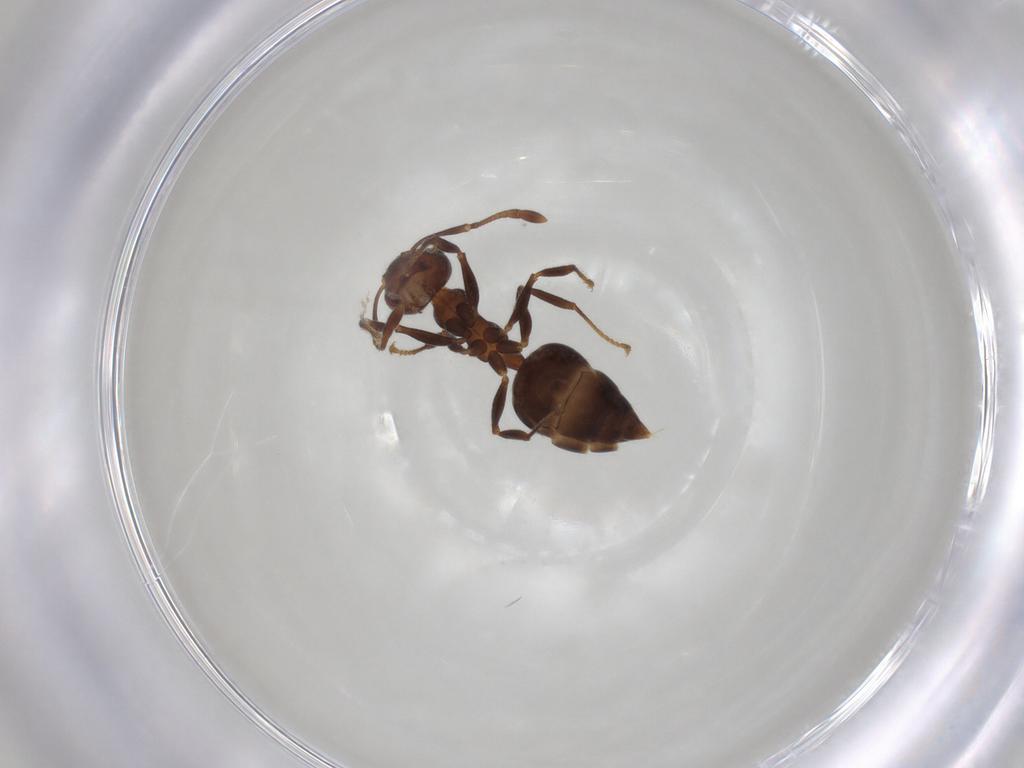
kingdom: Animalia
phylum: Arthropoda
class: Insecta
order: Hymenoptera
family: Formicidae
